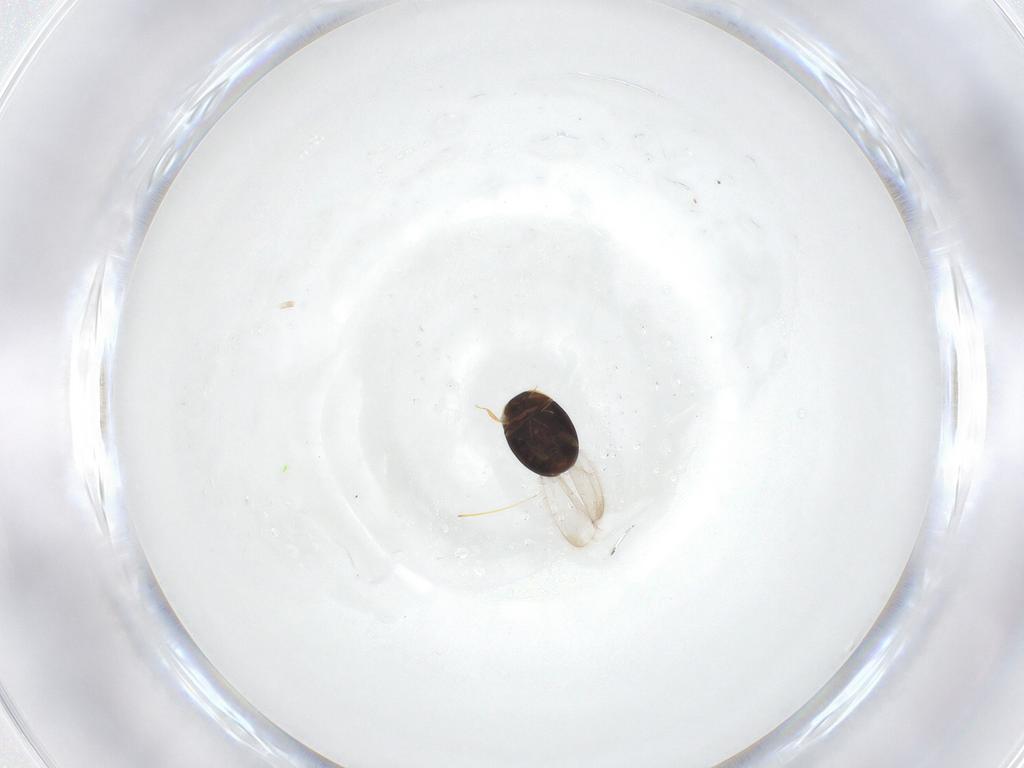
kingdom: Animalia
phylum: Arthropoda
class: Insecta
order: Coleoptera
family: Corylophidae
